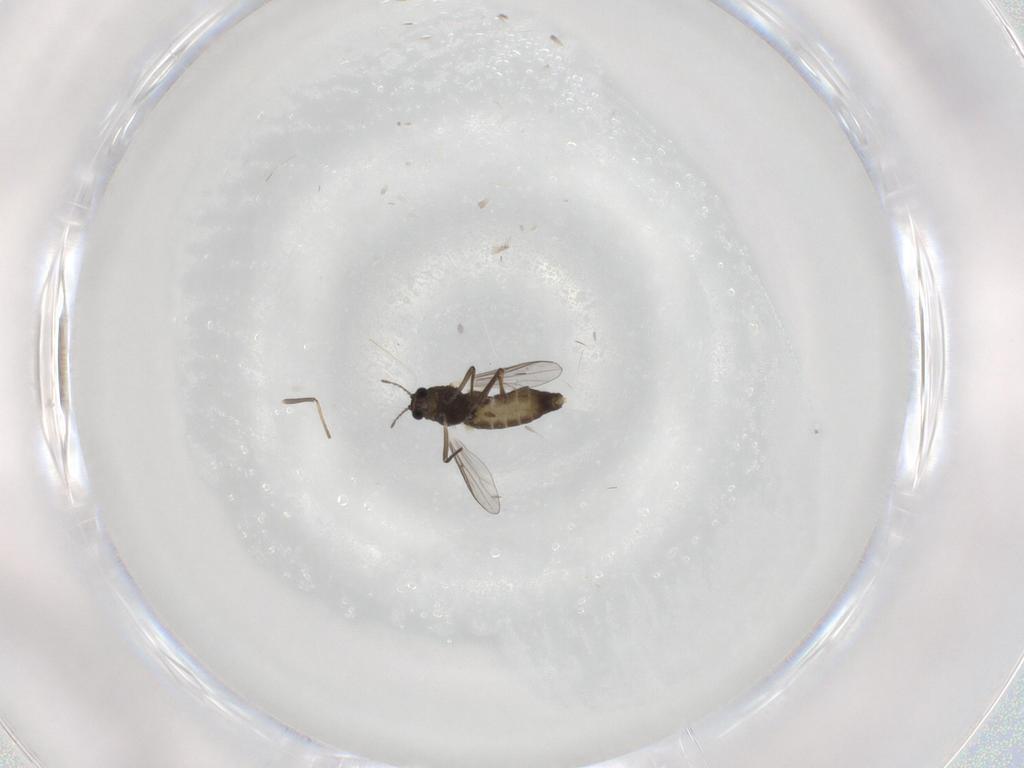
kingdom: Animalia
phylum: Arthropoda
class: Insecta
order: Diptera
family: Chironomidae
